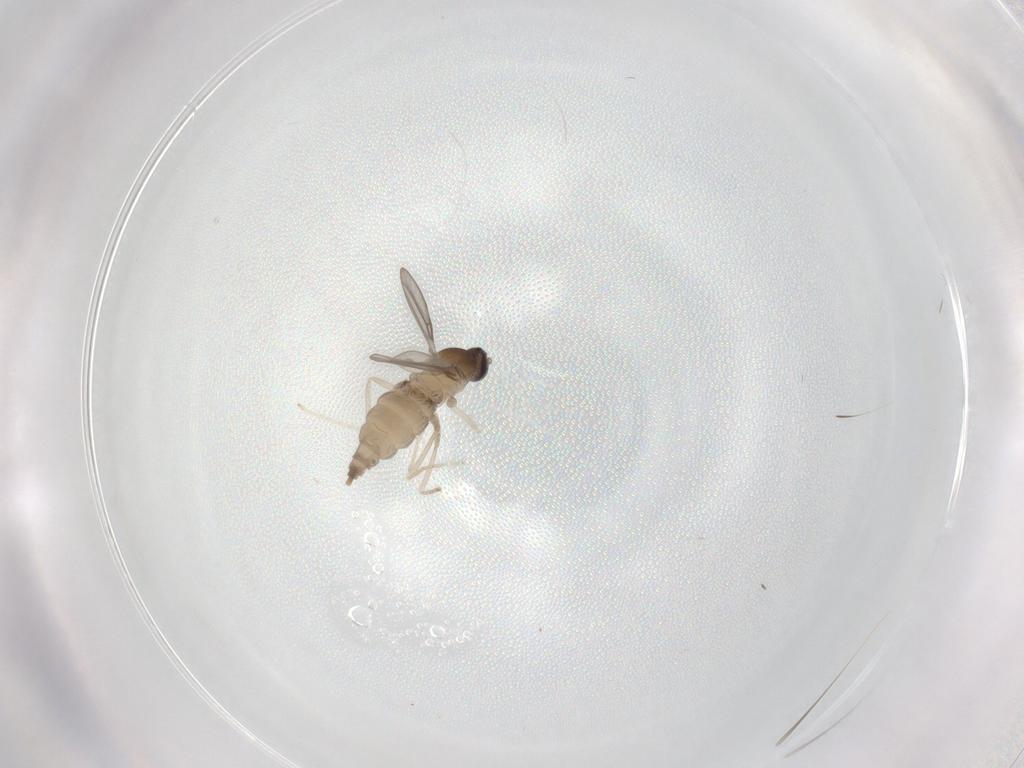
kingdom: Animalia
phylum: Arthropoda
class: Insecta
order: Diptera
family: Cecidomyiidae
